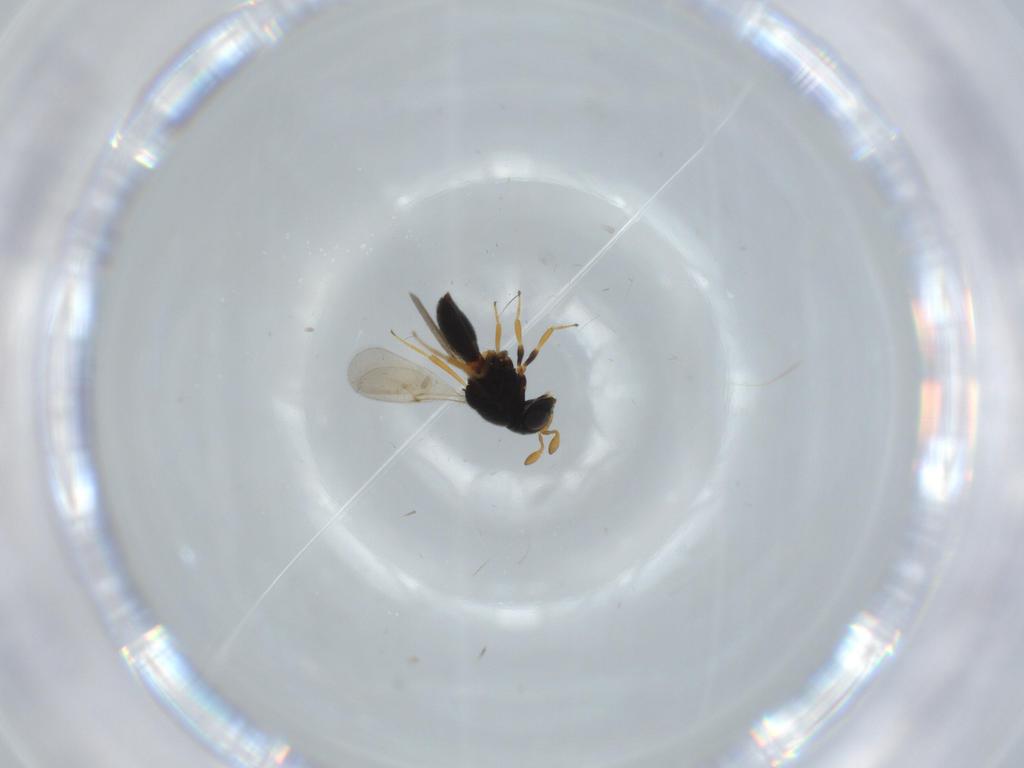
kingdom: Animalia
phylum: Arthropoda
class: Insecta
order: Hymenoptera
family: Scelionidae
